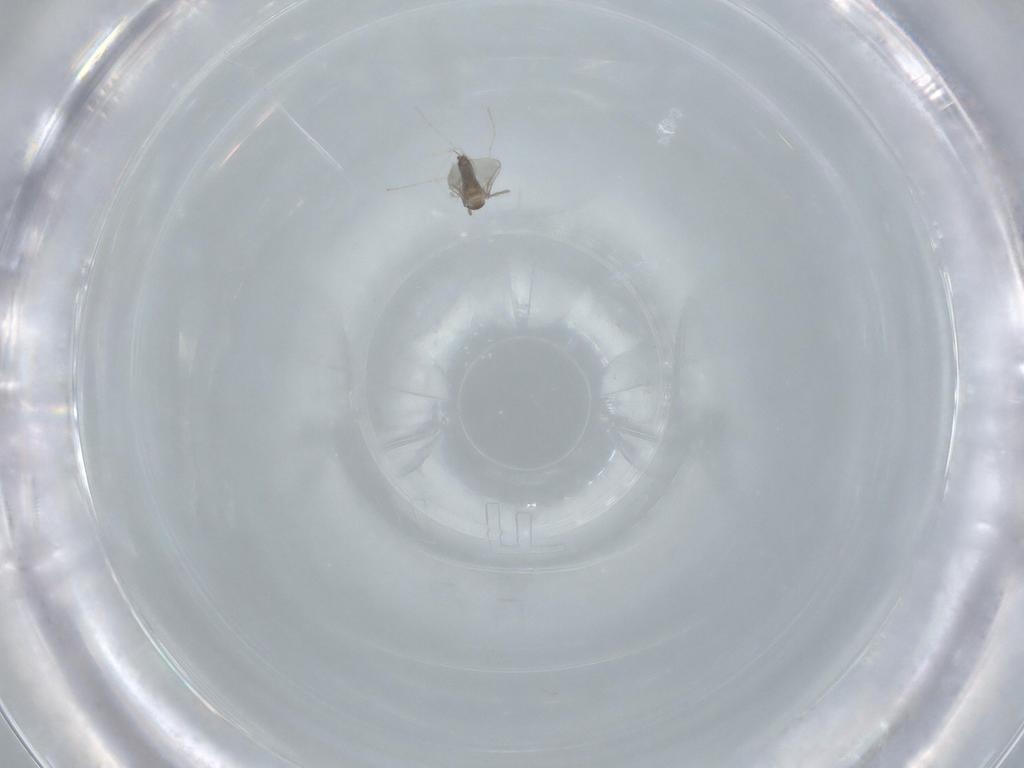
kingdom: Animalia
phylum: Arthropoda
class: Insecta
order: Diptera
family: Cecidomyiidae
